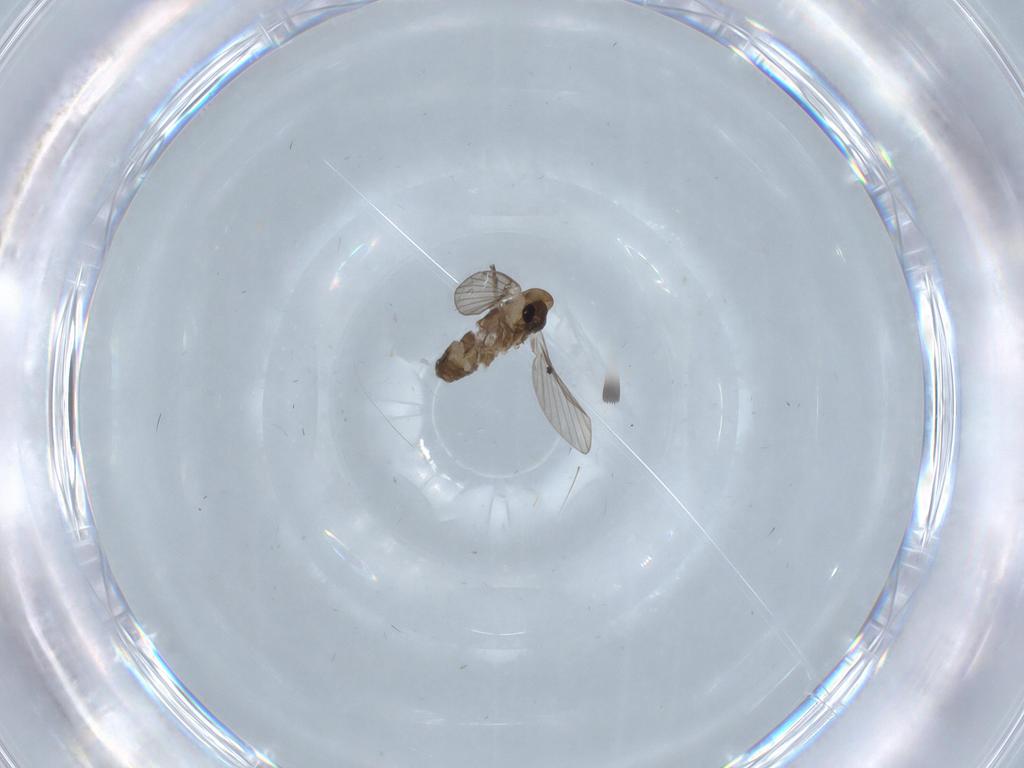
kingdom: Animalia
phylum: Arthropoda
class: Insecta
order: Diptera
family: Psychodidae
